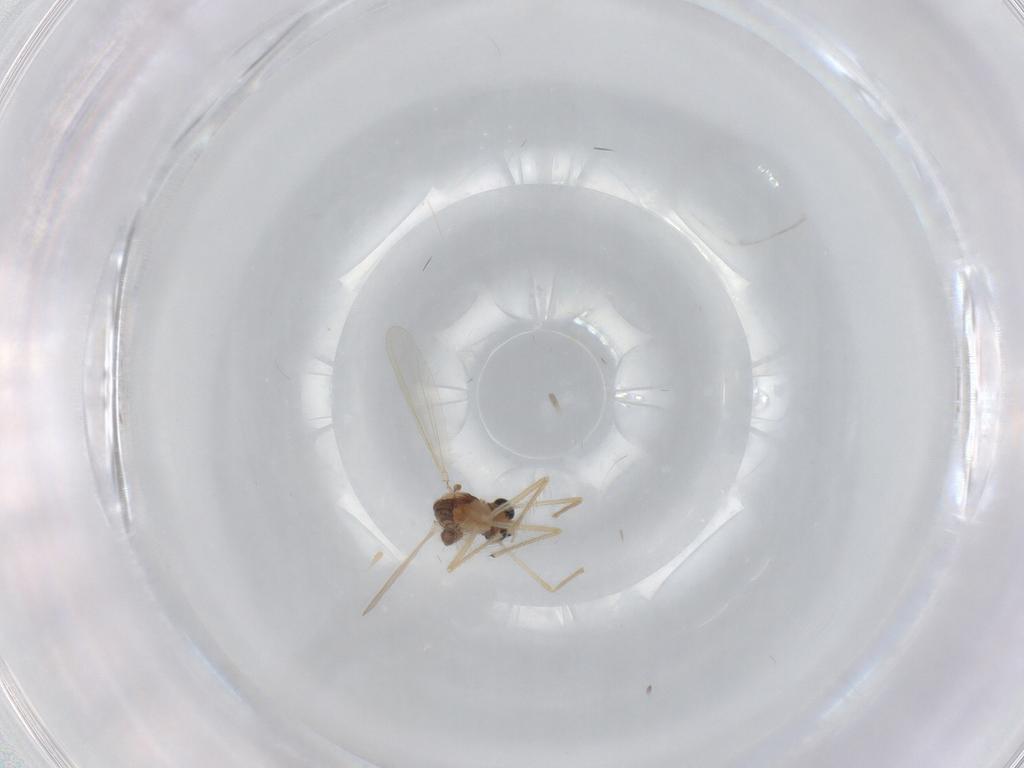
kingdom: Animalia
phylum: Arthropoda
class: Insecta
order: Diptera
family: Chironomidae
